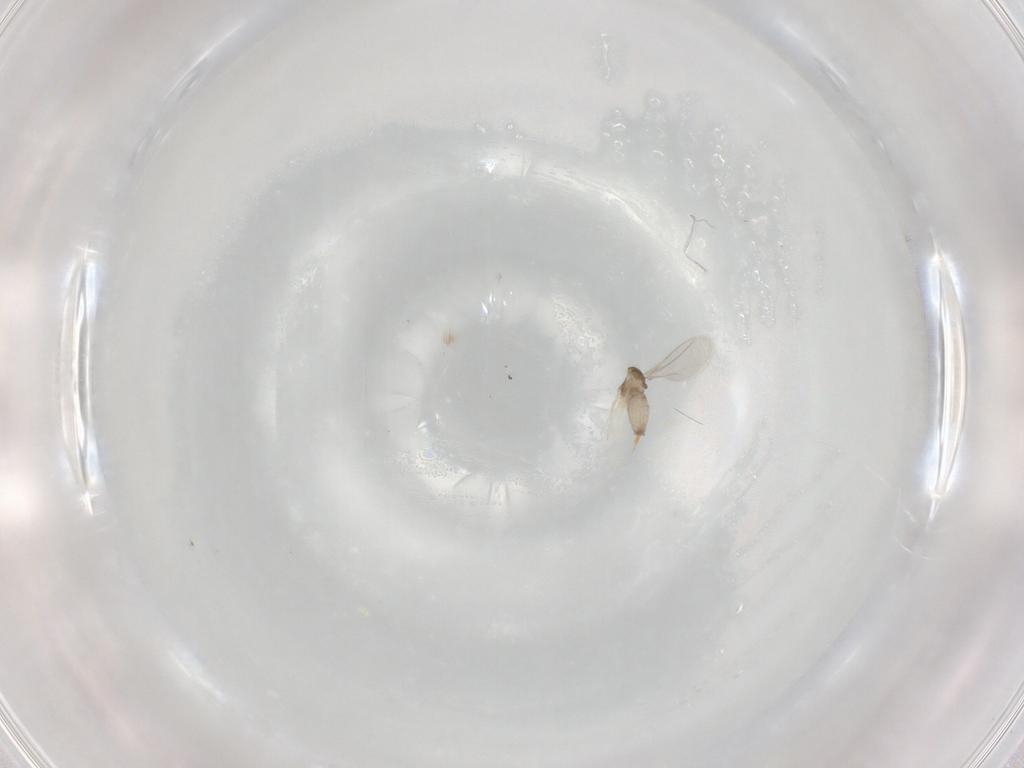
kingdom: Animalia
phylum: Arthropoda
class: Insecta
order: Diptera
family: Cecidomyiidae
